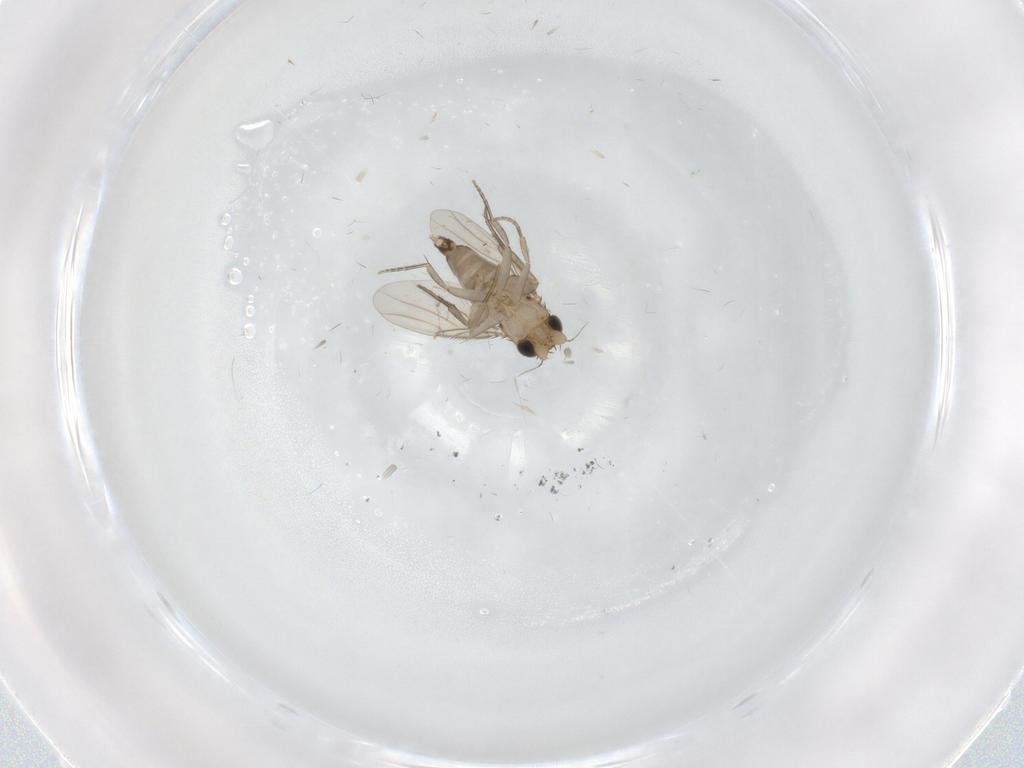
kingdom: Animalia
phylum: Arthropoda
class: Insecta
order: Diptera
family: Phoridae
